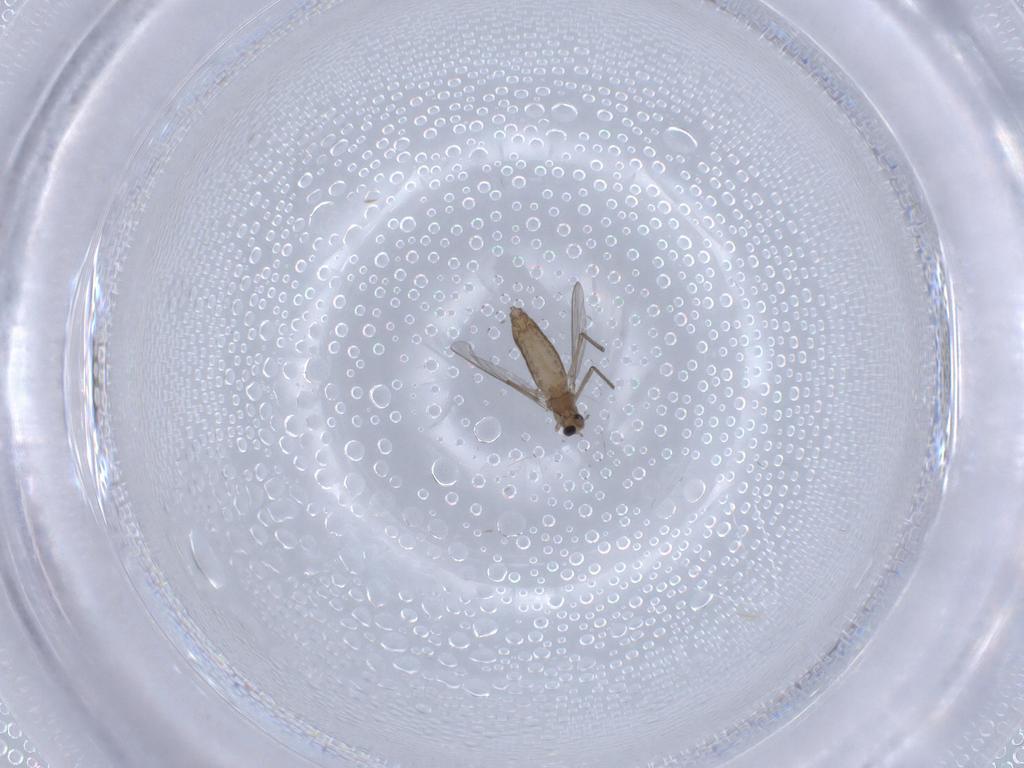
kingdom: Animalia
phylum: Arthropoda
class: Insecta
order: Diptera
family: Chironomidae
